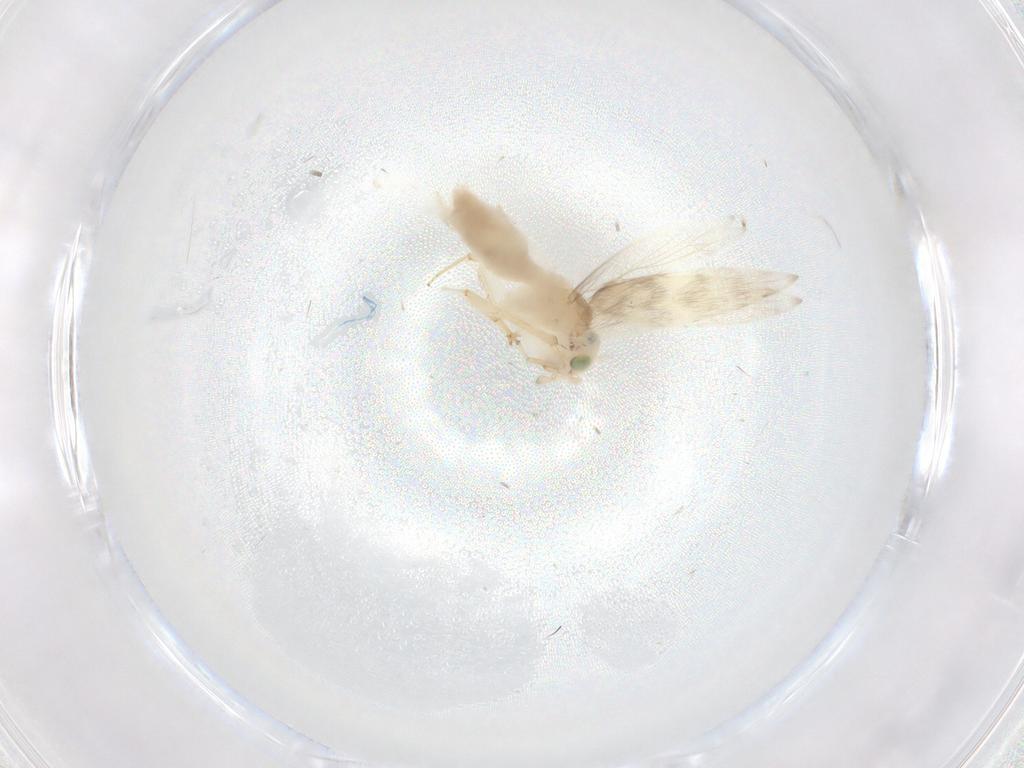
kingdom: Animalia
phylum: Arthropoda
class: Insecta
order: Psocodea
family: Lepidopsocidae
